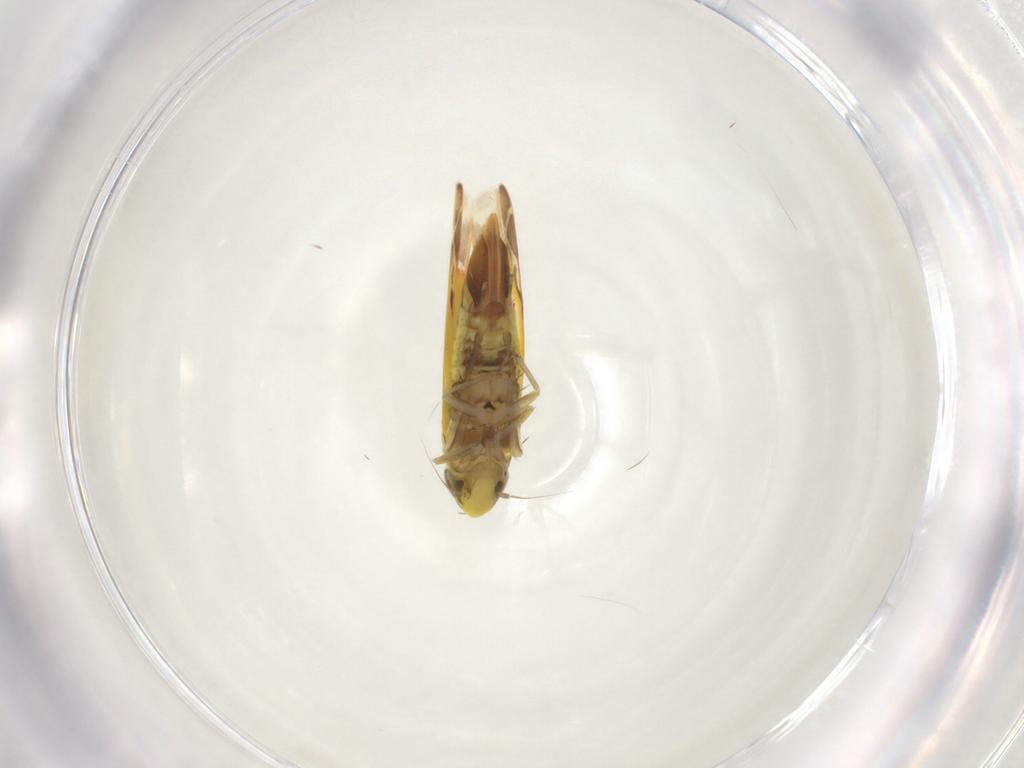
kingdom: Animalia
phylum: Arthropoda
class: Insecta
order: Hemiptera
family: Cicadellidae
